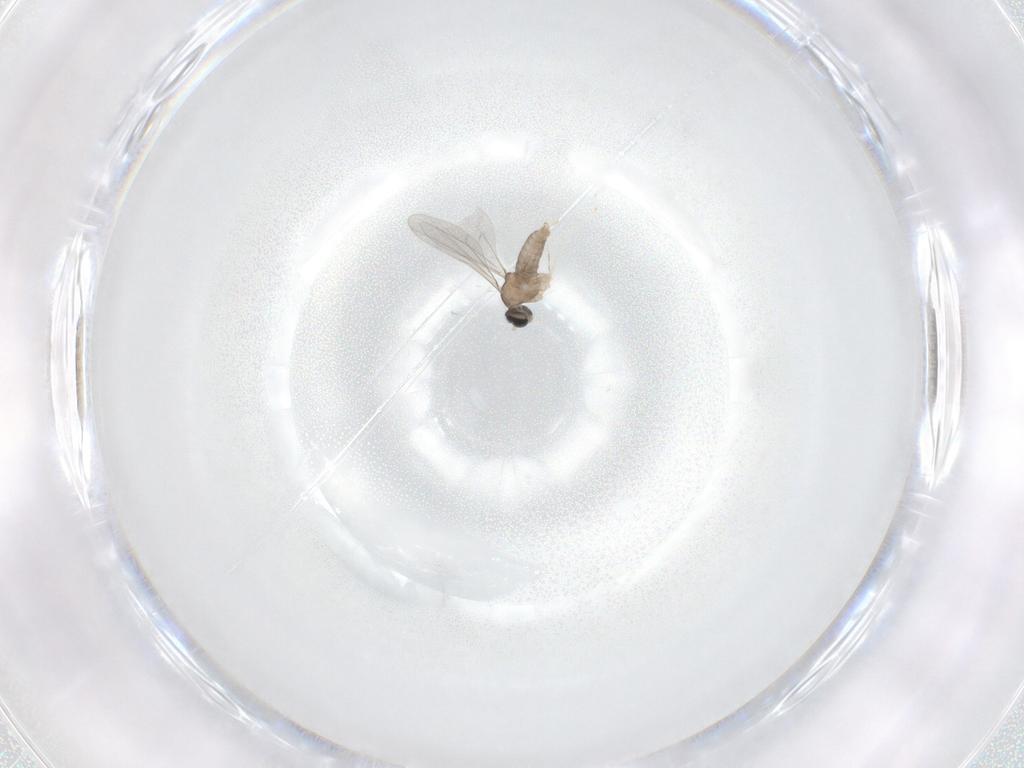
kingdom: Animalia
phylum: Arthropoda
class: Insecta
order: Diptera
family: Cecidomyiidae
